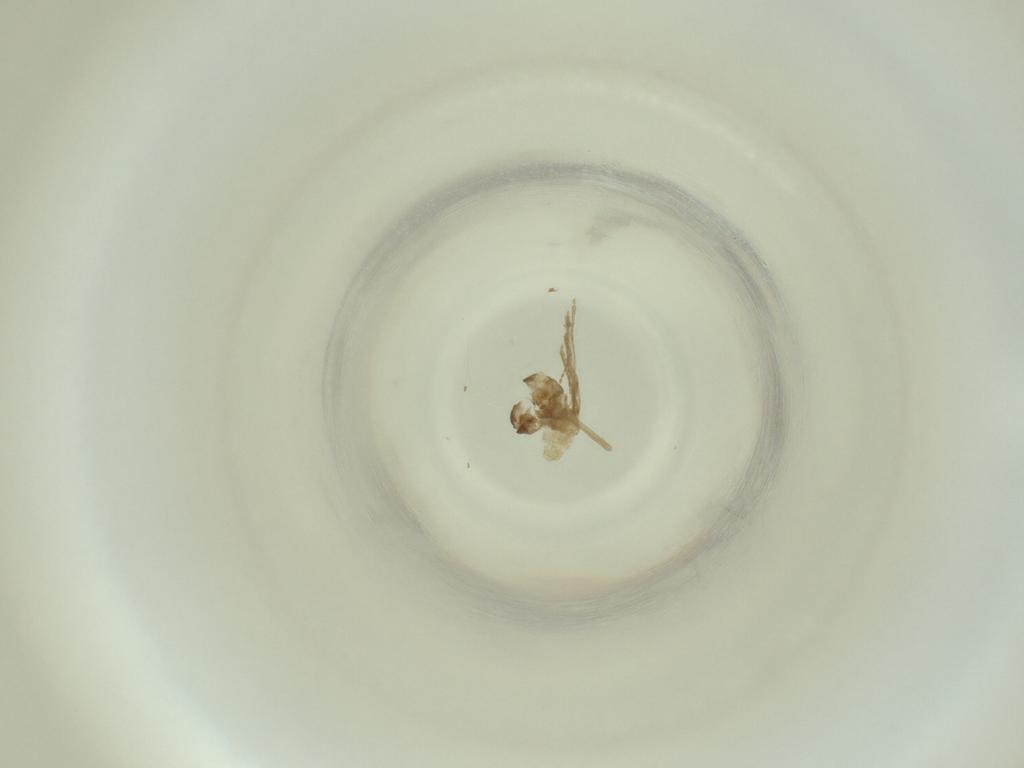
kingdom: Animalia
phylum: Arthropoda
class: Insecta
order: Diptera
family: Cecidomyiidae
